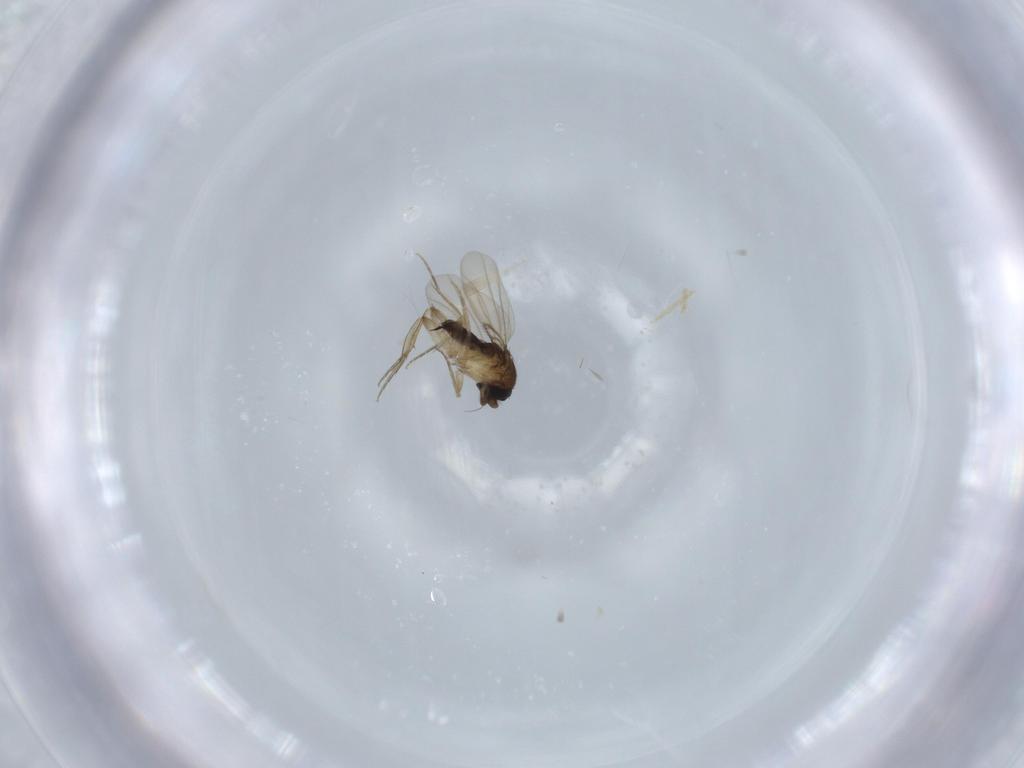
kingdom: Animalia
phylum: Arthropoda
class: Insecta
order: Diptera
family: Phoridae
